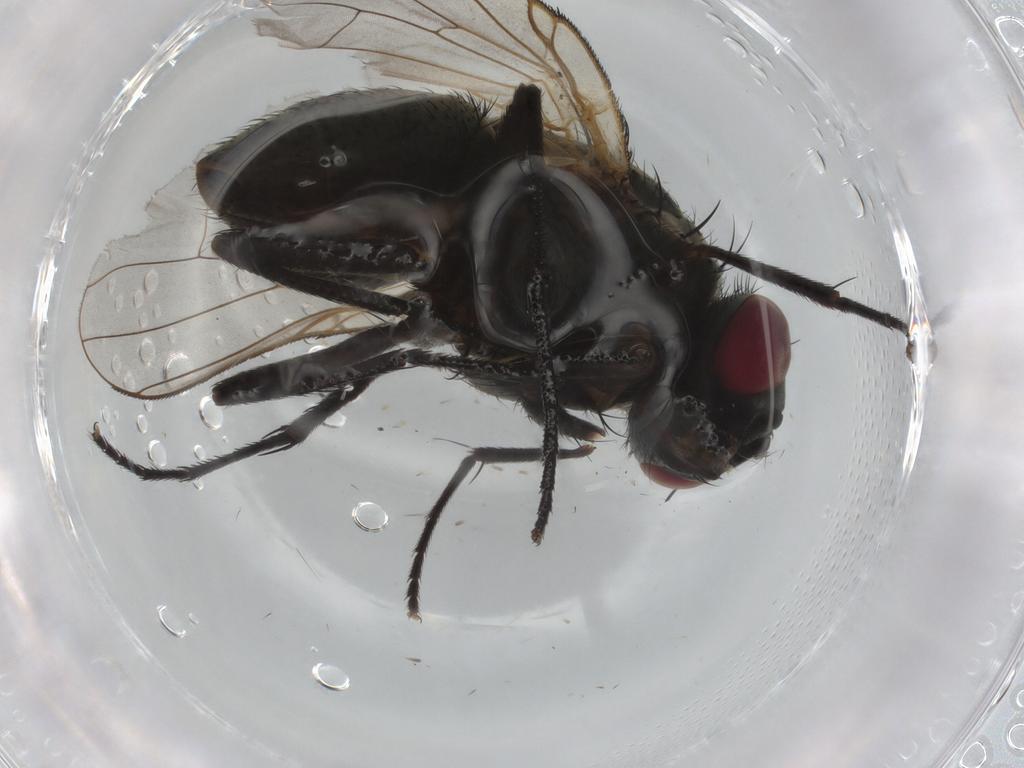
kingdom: Animalia
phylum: Arthropoda
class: Insecta
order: Diptera
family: Muscidae
